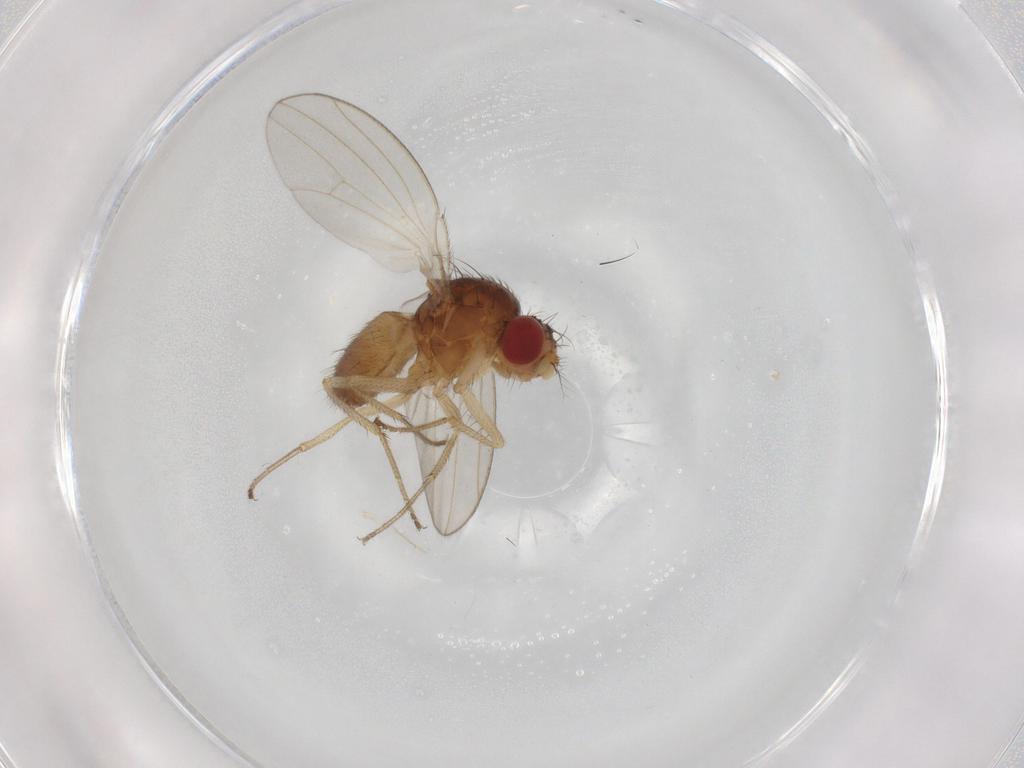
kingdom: Animalia
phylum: Arthropoda
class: Insecta
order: Diptera
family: Drosophilidae
